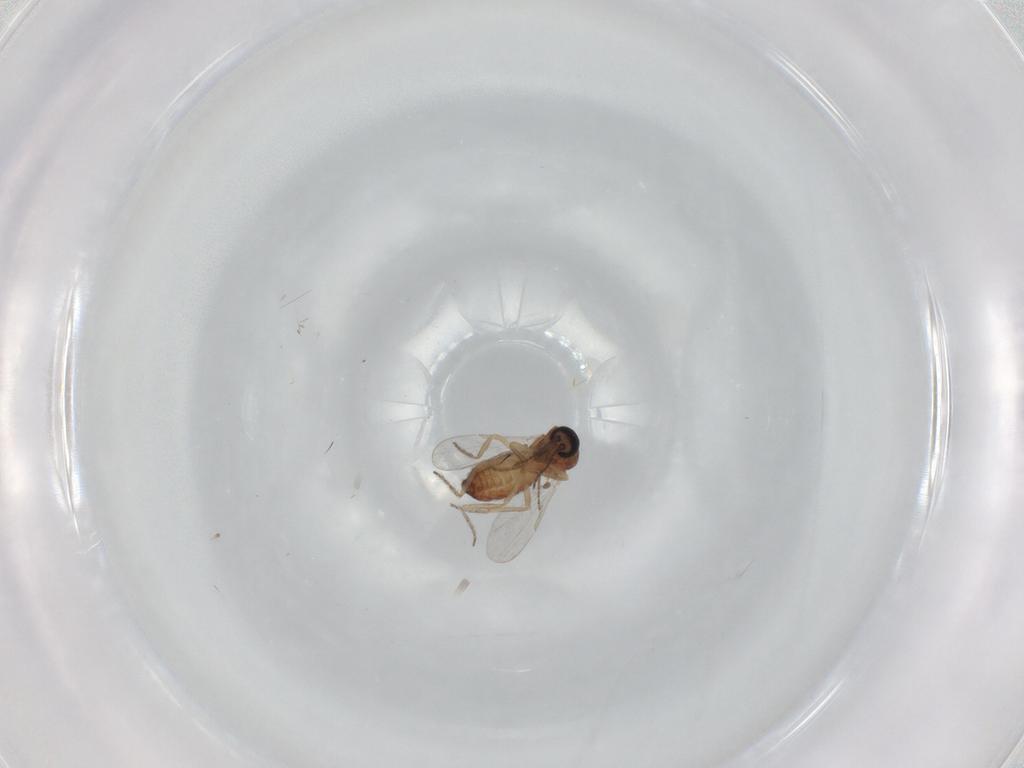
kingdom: Animalia
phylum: Arthropoda
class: Insecta
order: Diptera
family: Ceratopogonidae
